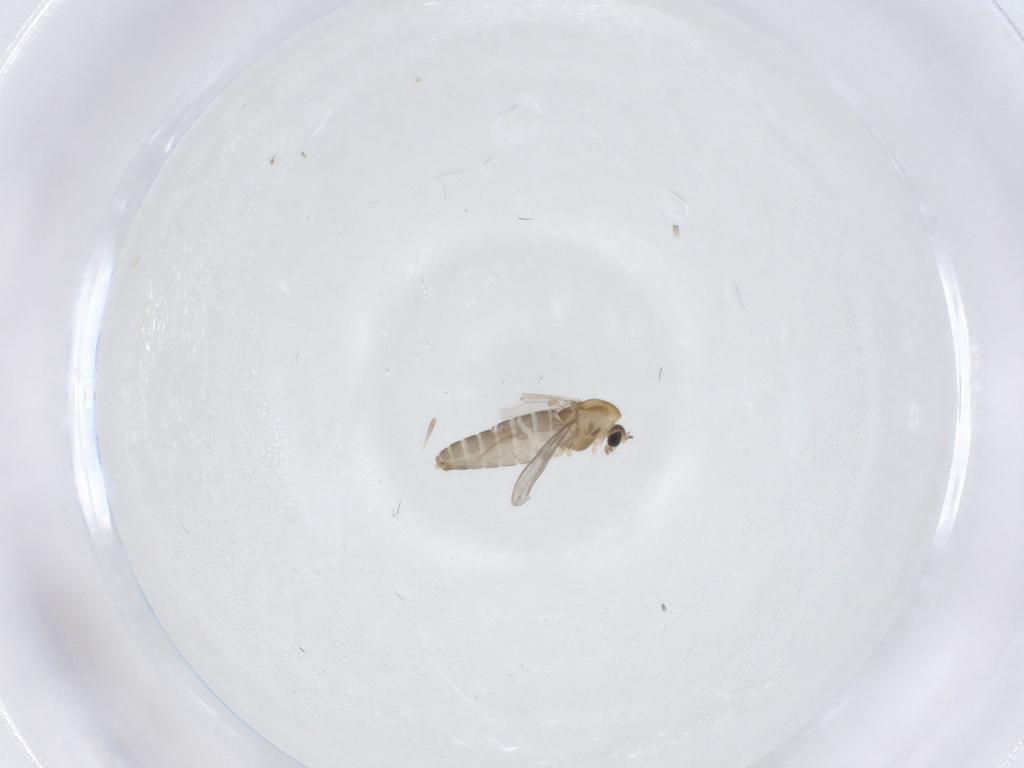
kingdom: Animalia
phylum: Arthropoda
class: Insecta
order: Diptera
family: Chironomidae
